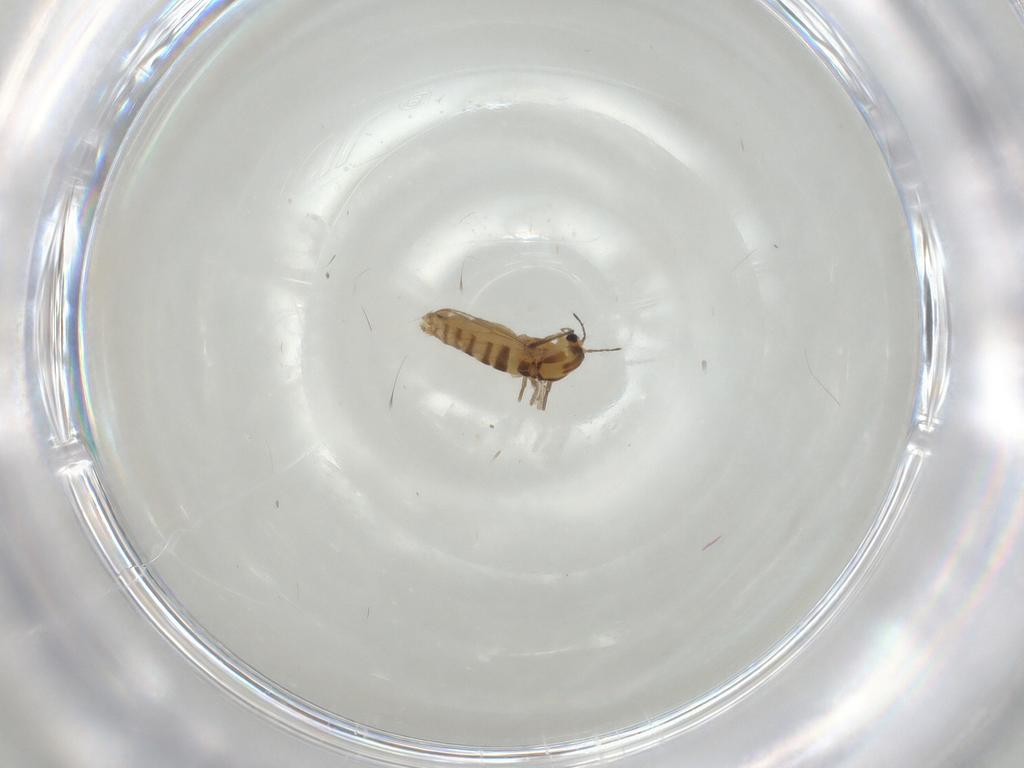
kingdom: Animalia
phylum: Arthropoda
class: Insecta
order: Diptera
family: Cecidomyiidae
